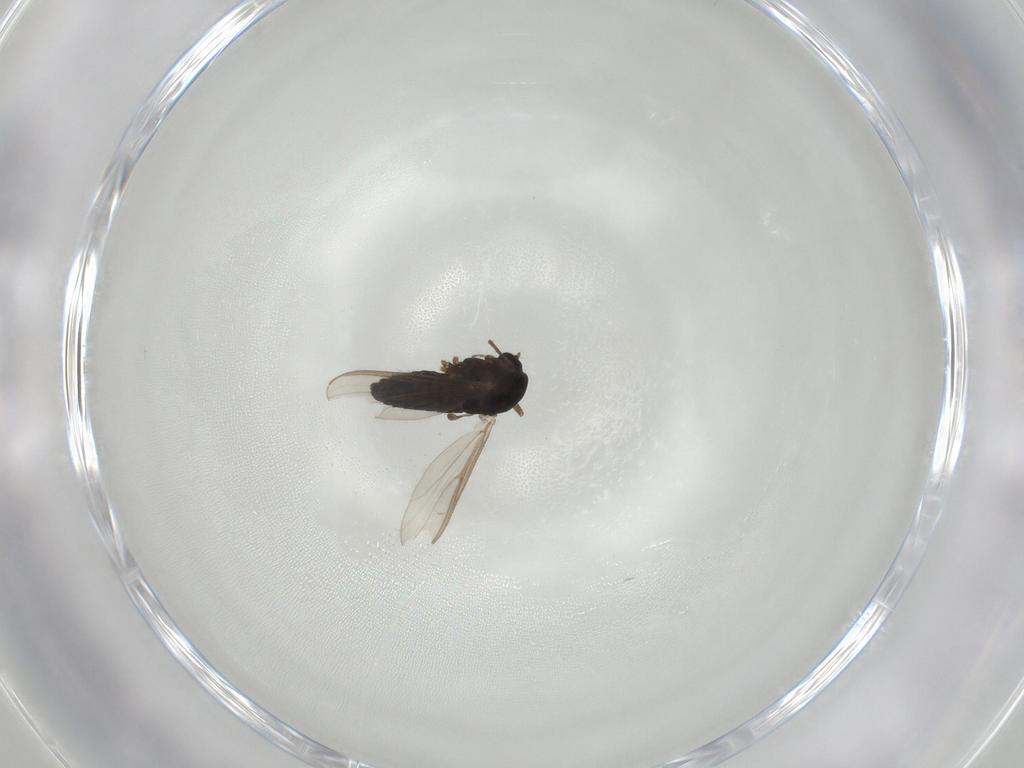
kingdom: Animalia
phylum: Arthropoda
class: Insecta
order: Diptera
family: Chironomidae
